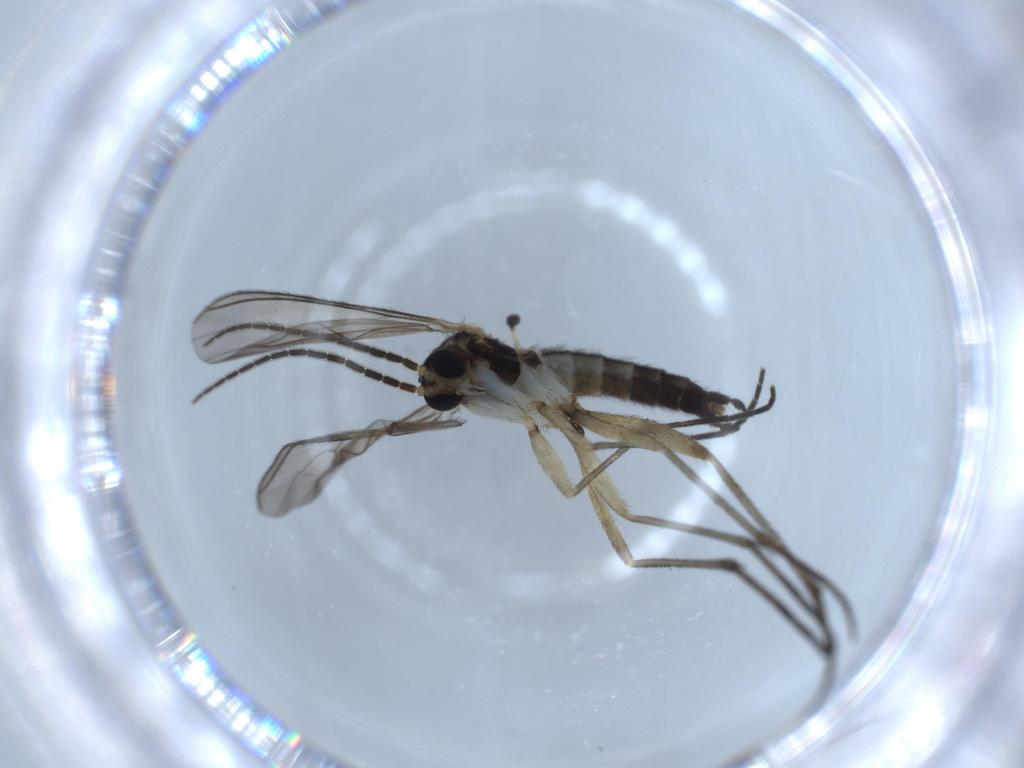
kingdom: Animalia
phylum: Arthropoda
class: Insecta
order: Diptera
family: Sciaridae
